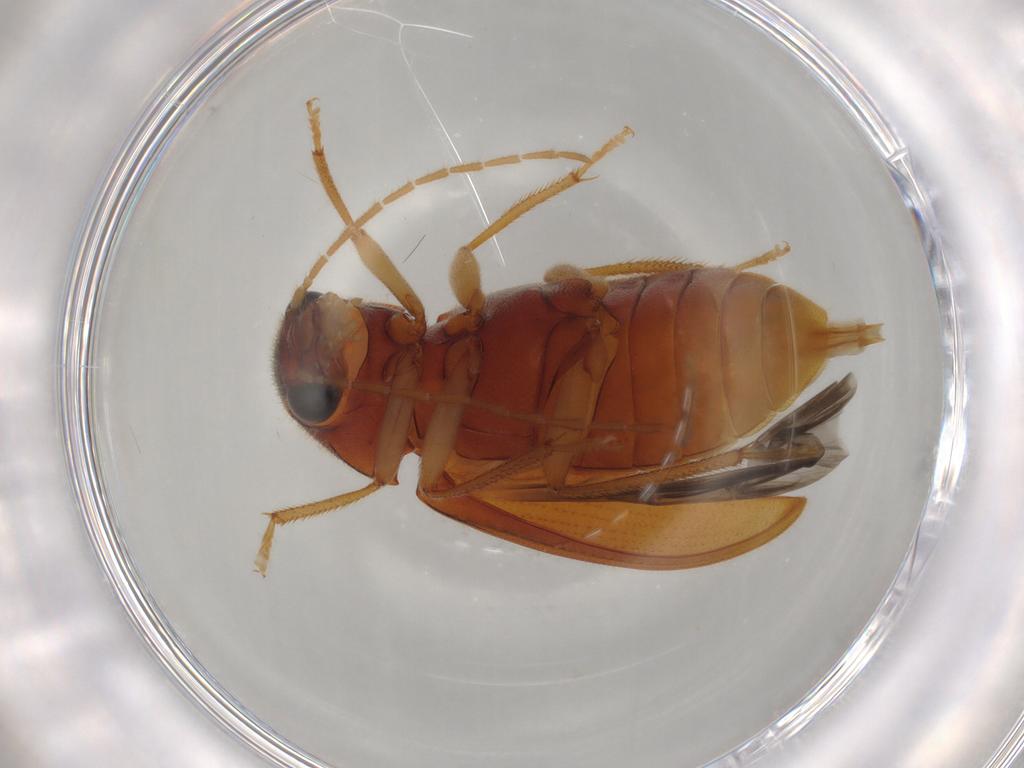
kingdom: Animalia
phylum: Arthropoda
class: Insecta
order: Coleoptera
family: Ptilodactylidae
